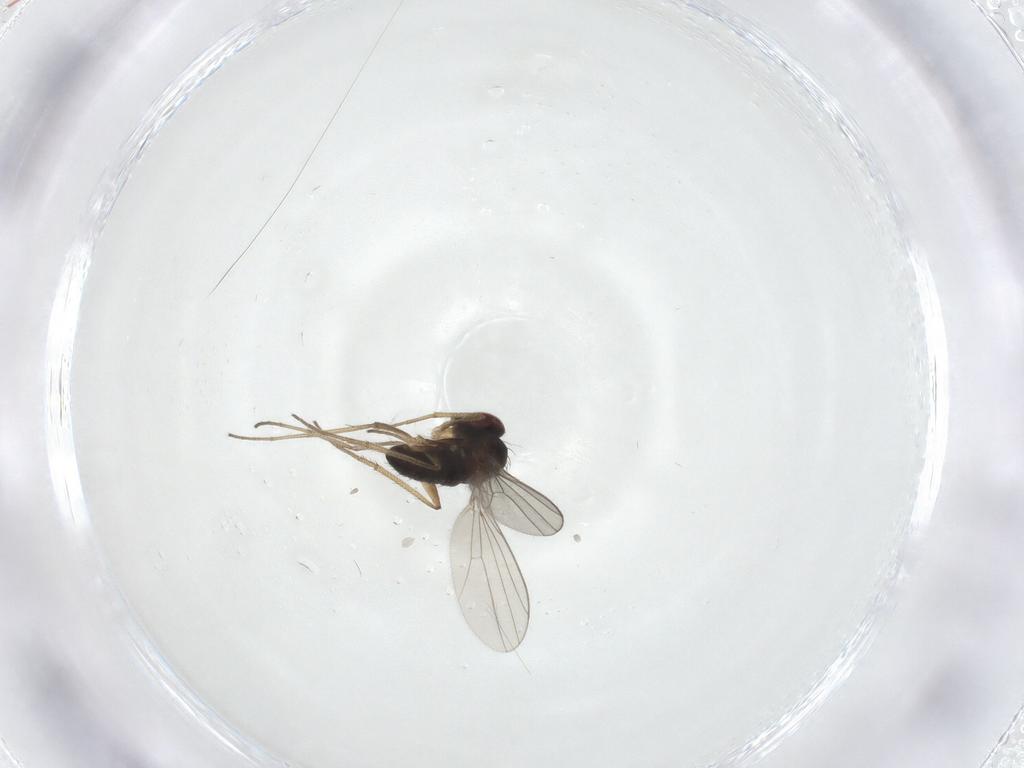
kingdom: Animalia
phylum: Arthropoda
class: Insecta
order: Diptera
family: Dolichopodidae
